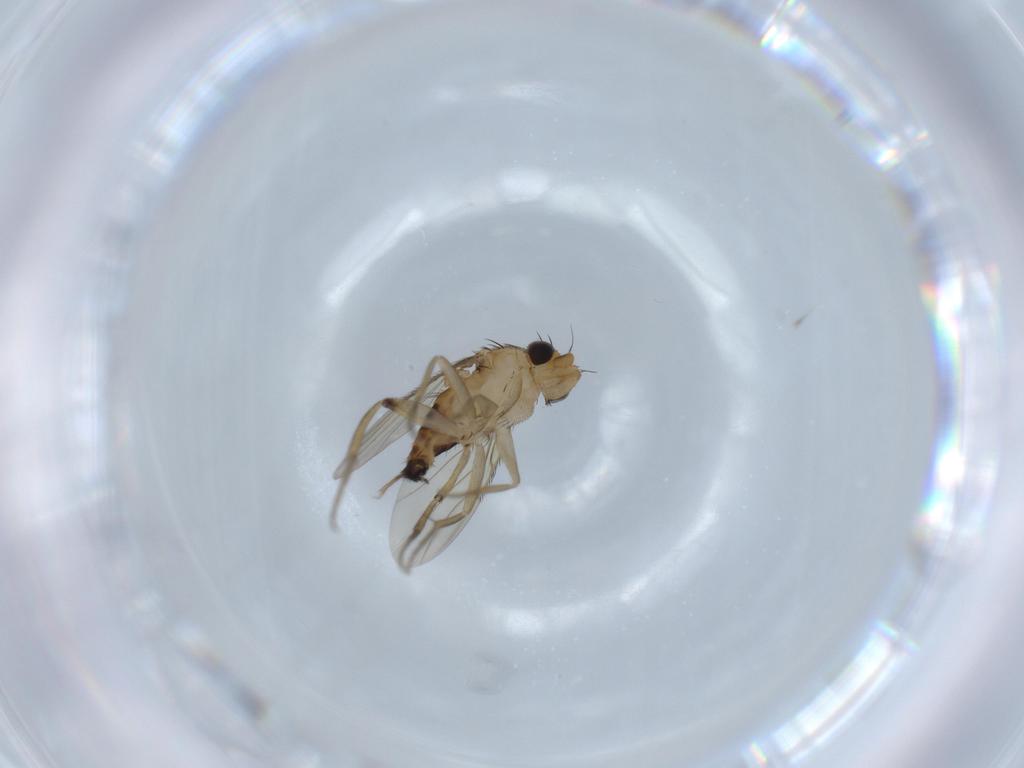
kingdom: Animalia
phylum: Arthropoda
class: Insecta
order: Diptera
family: Phoridae
